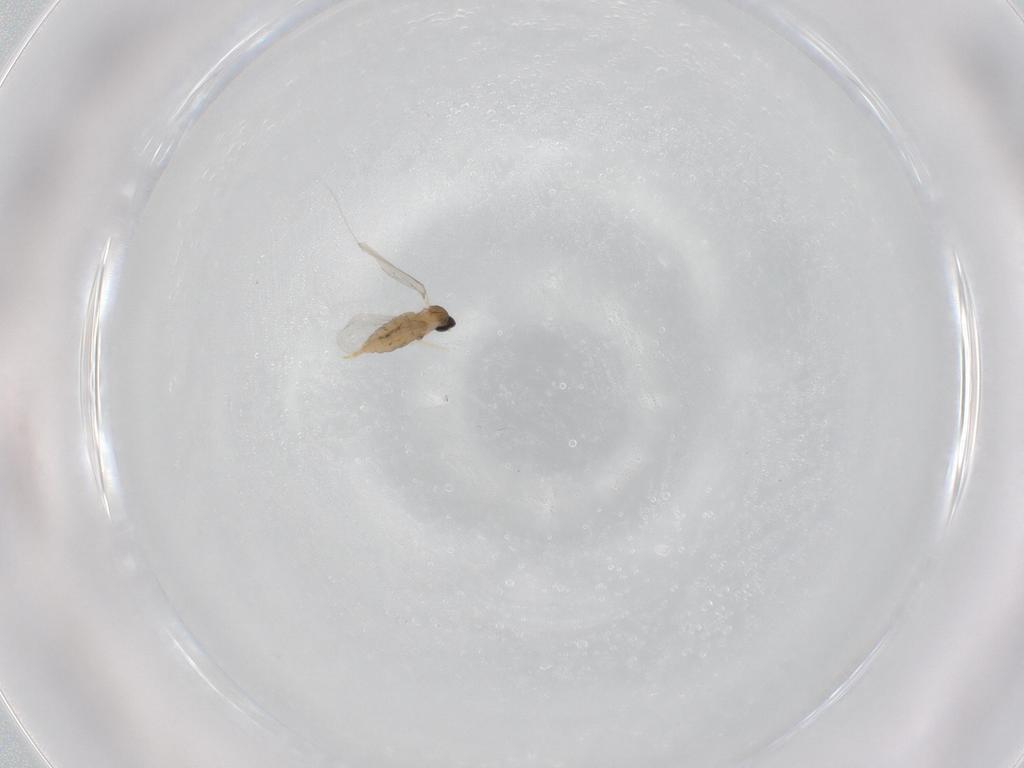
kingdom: Animalia
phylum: Arthropoda
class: Insecta
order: Diptera
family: Cecidomyiidae
